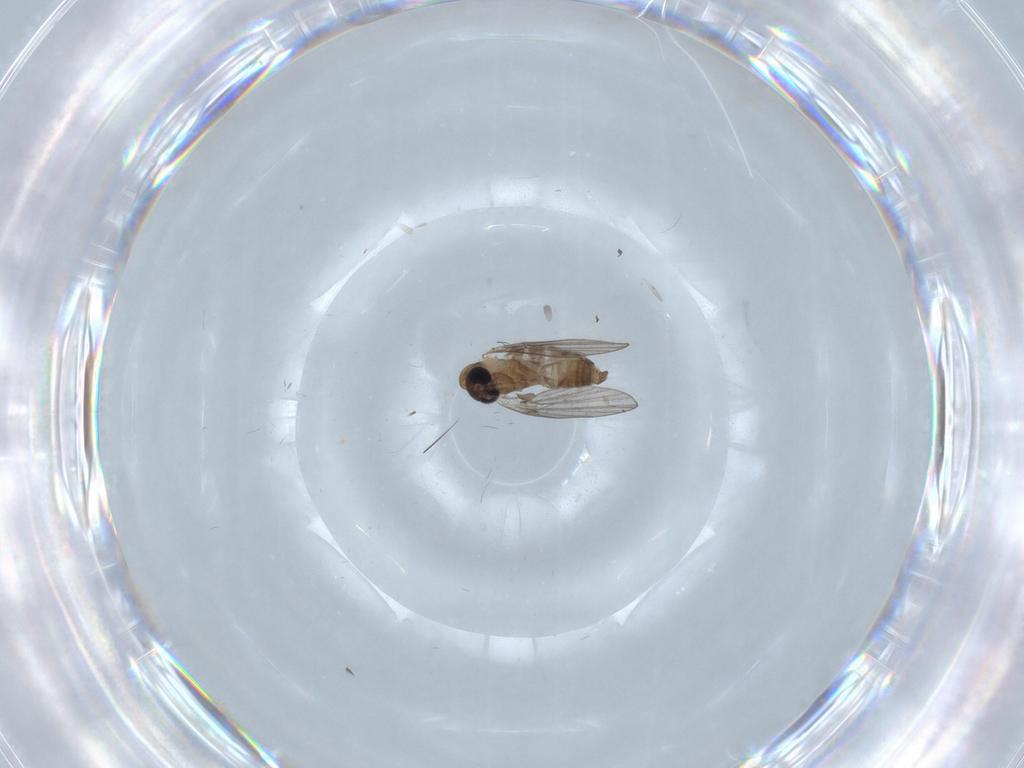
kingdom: Animalia
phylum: Arthropoda
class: Insecta
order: Diptera
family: Psychodidae
